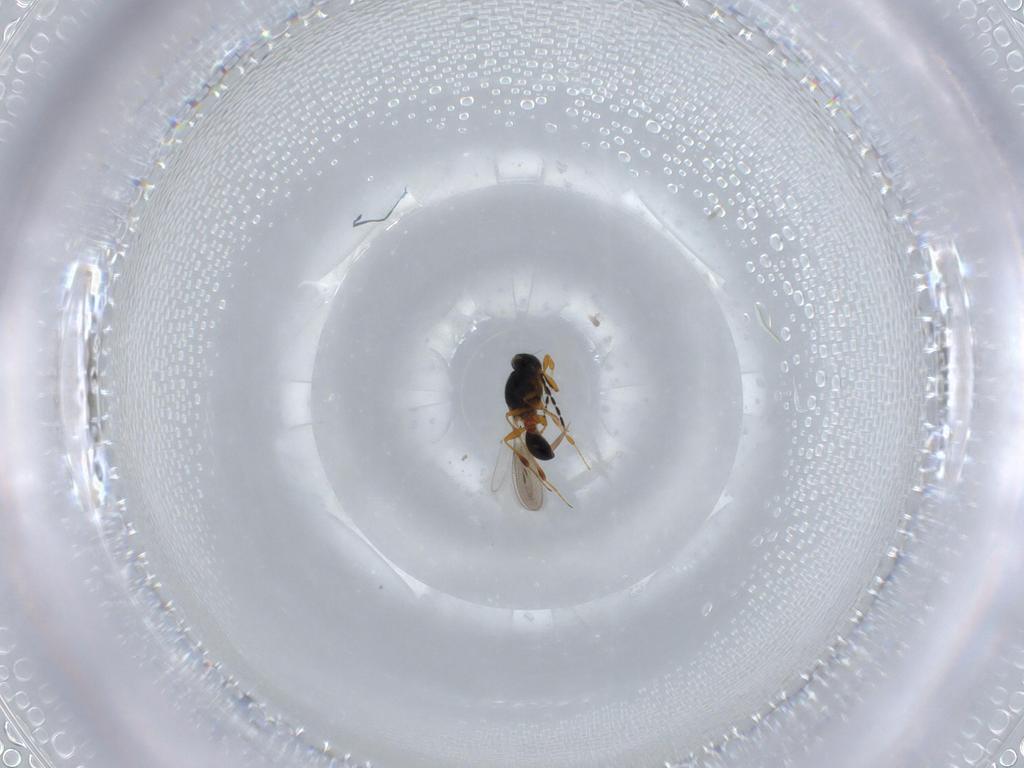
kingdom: Animalia
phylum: Arthropoda
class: Insecta
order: Hymenoptera
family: Platygastridae
